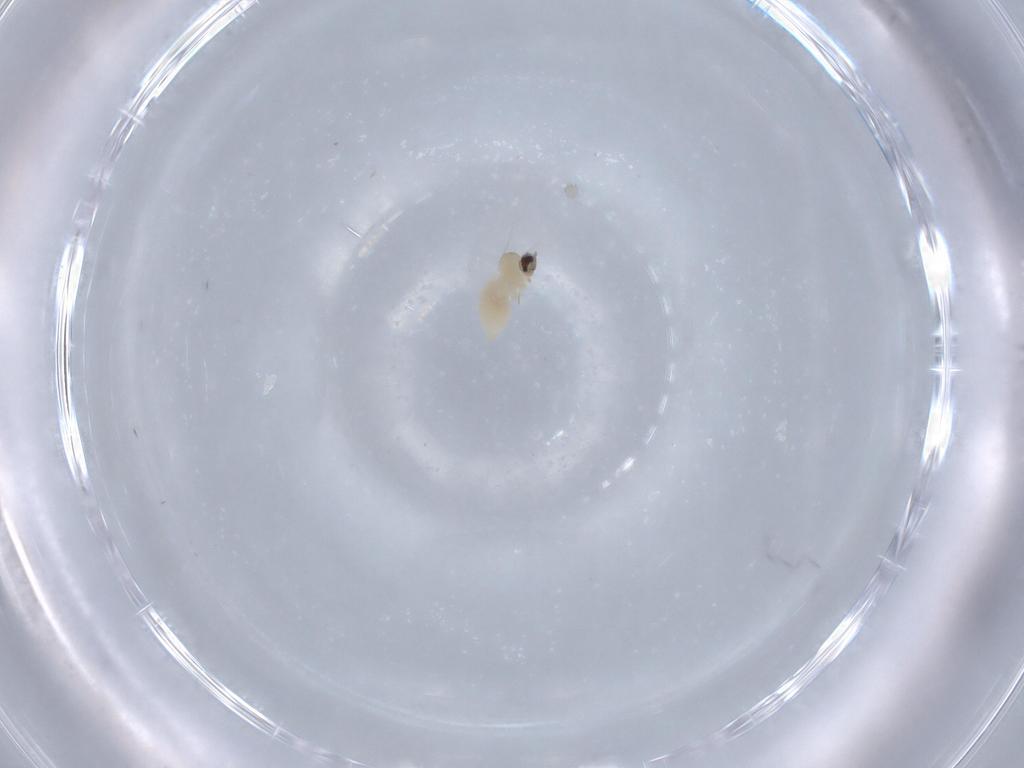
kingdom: Animalia
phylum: Arthropoda
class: Insecta
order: Diptera
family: Cecidomyiidae
